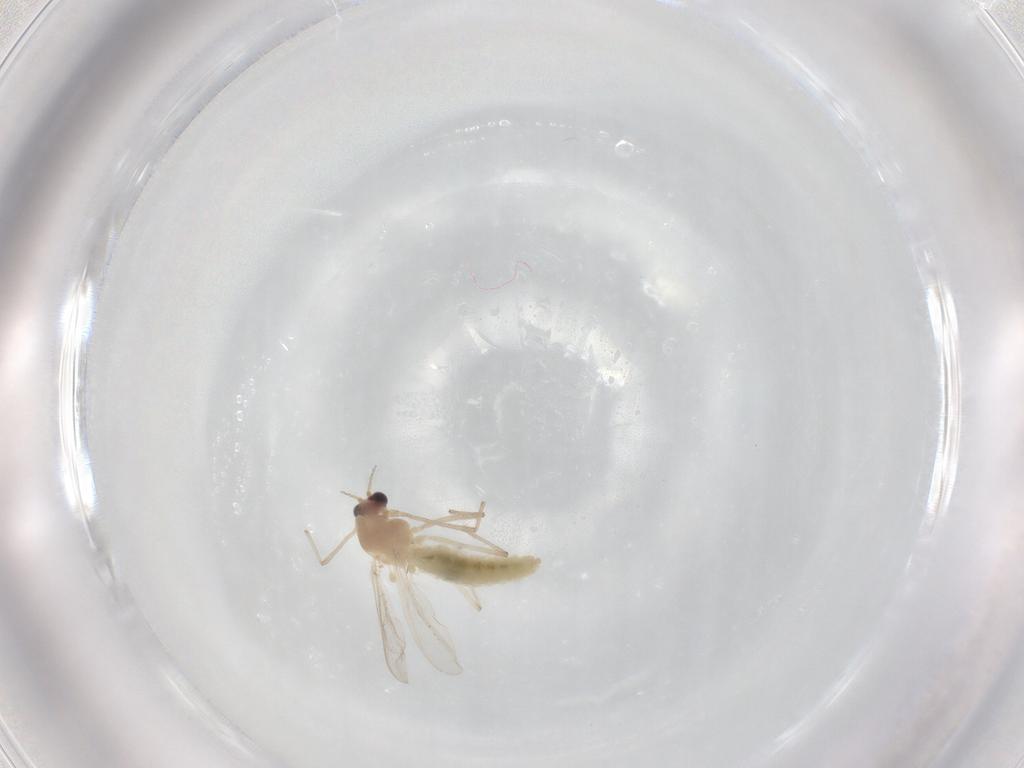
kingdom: Animalia
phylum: Arthropoda
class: Insecta
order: Diptera
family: Chironomidae
